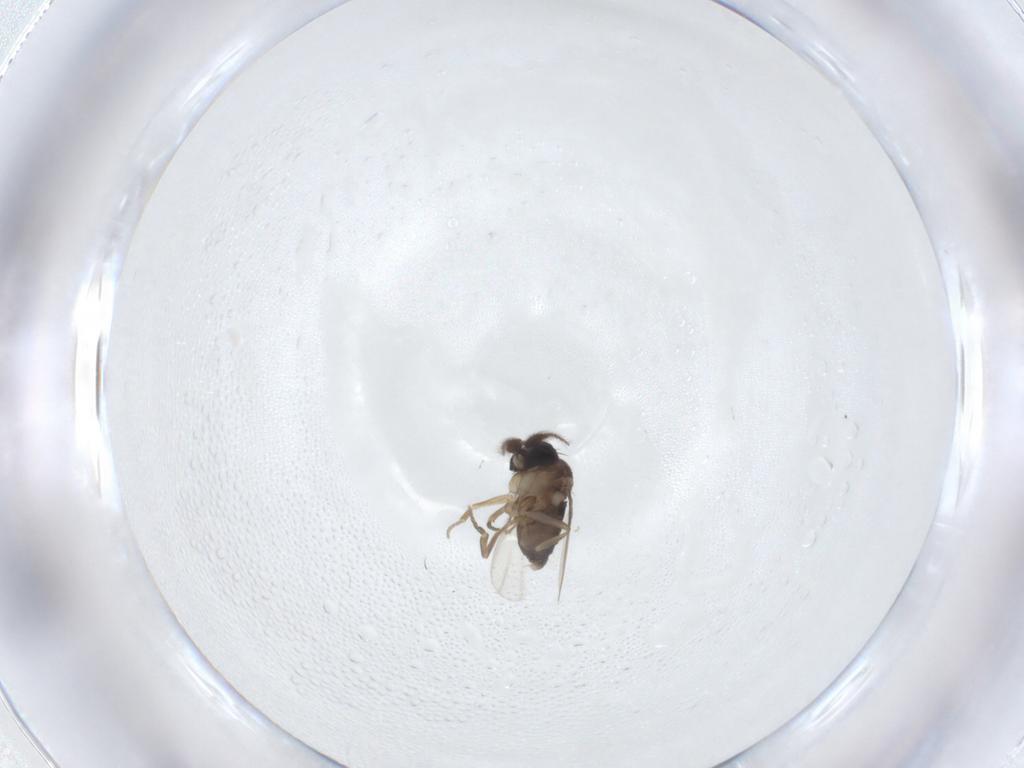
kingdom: Animalia
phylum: Arthropoda
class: Insecta
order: Diptera
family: Phoridae
